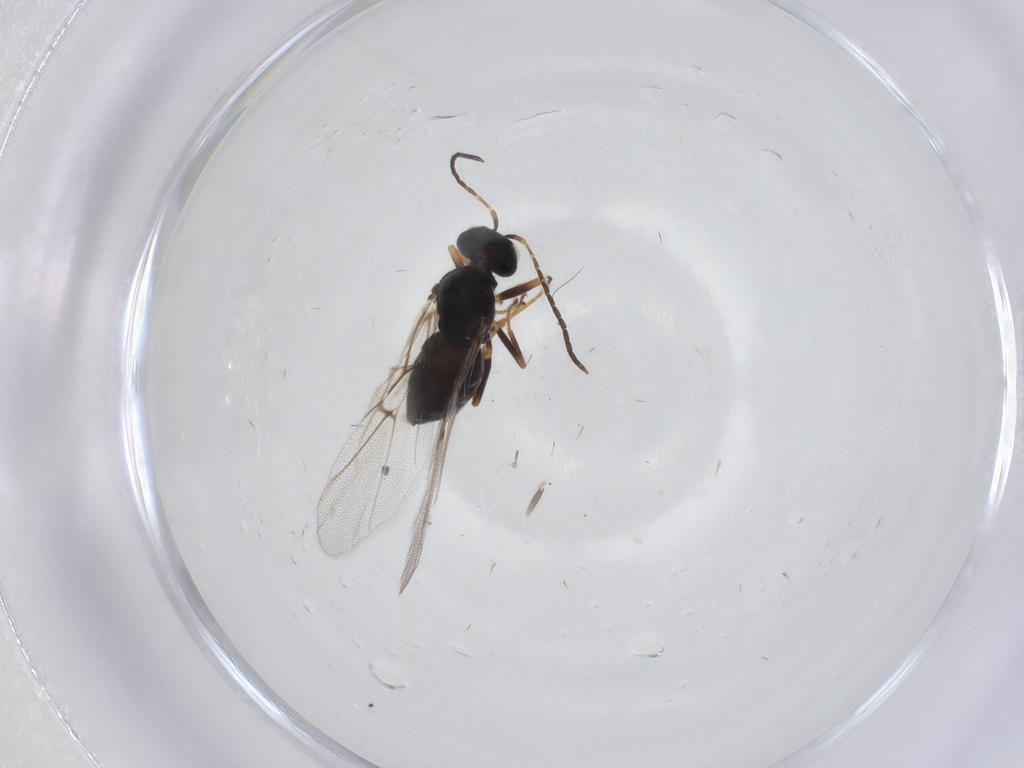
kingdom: Animalia
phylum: Arthropoda
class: Insecta
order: Hymenoptera
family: Cynipidae
